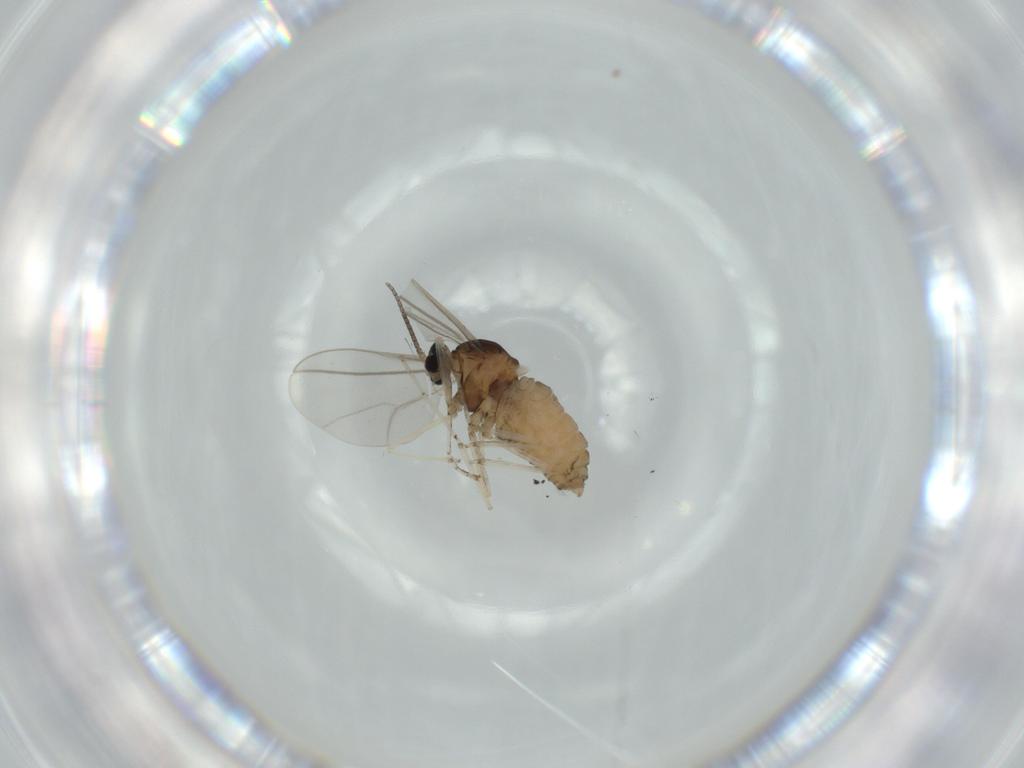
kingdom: Animalia
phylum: Arthropoda
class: Insecta
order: Diptera
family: Cecidomyiidae
